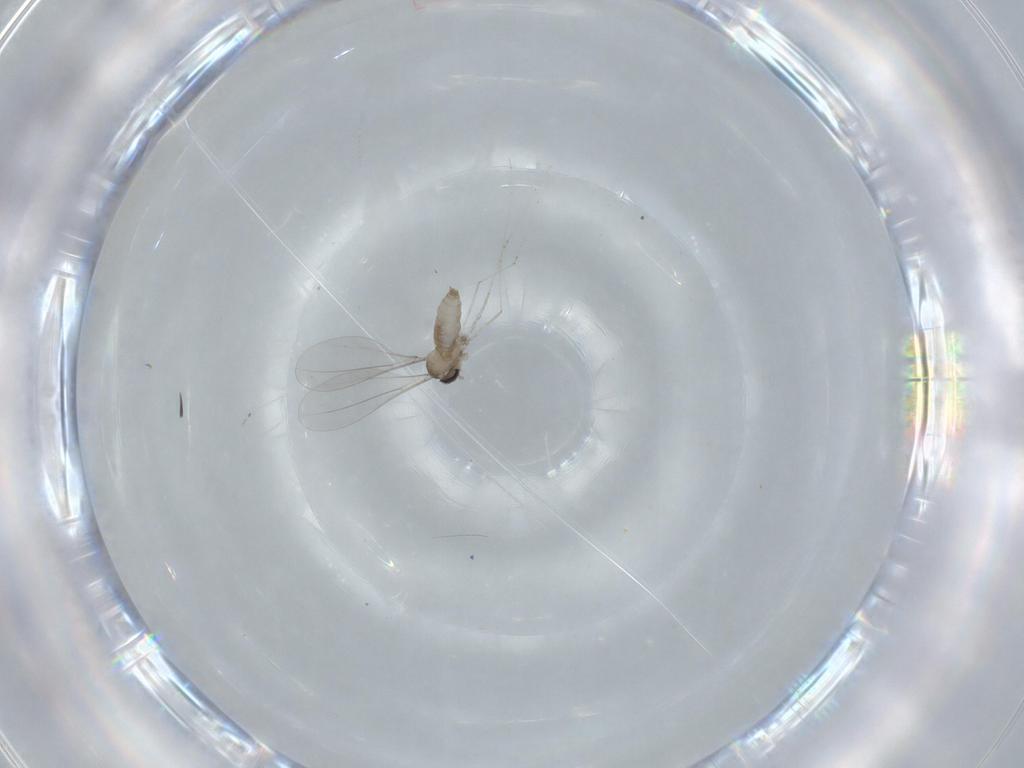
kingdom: Animalia
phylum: Arthropoda
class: Insecta
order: Diptera
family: Cecidomyiidae
